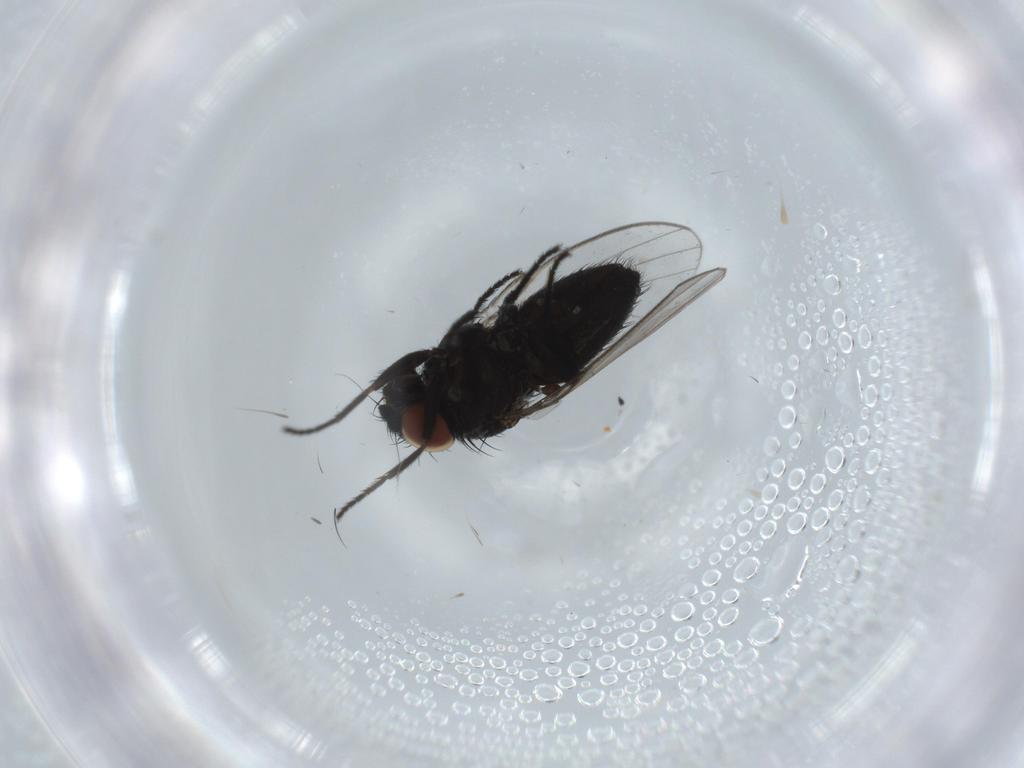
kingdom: Animalia
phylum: Arthropoda
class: Insecta
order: Diptera
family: Milichiidae
